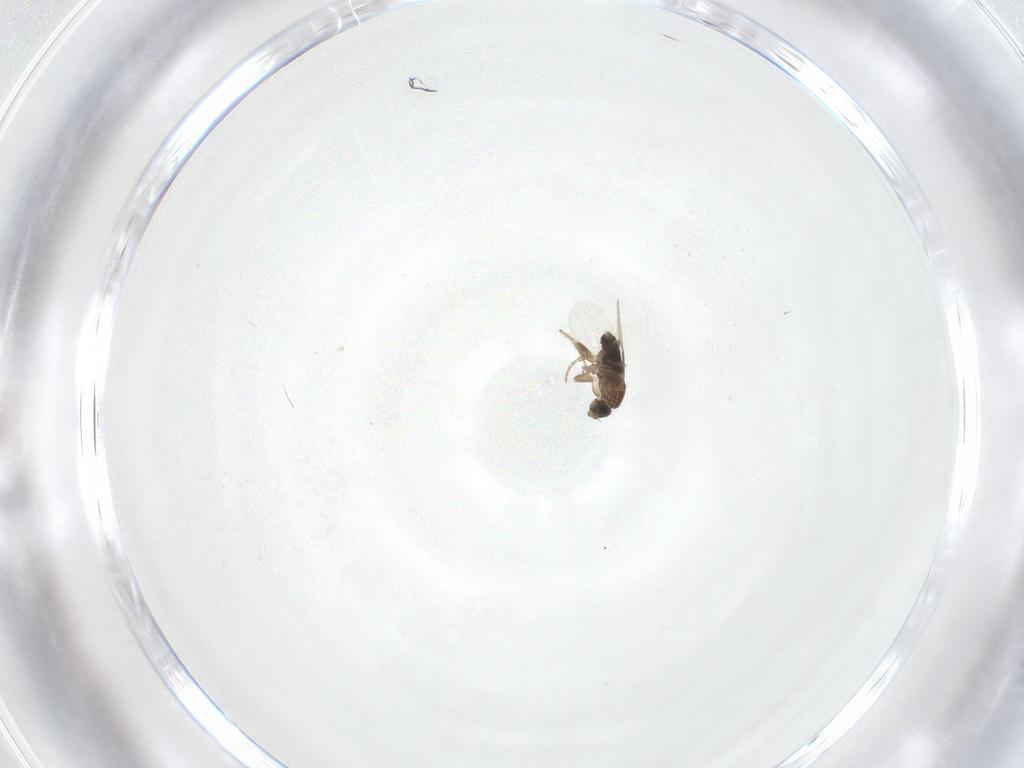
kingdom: Animalia
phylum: Arthropoda
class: Insecta
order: Diptera
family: Phoridae
